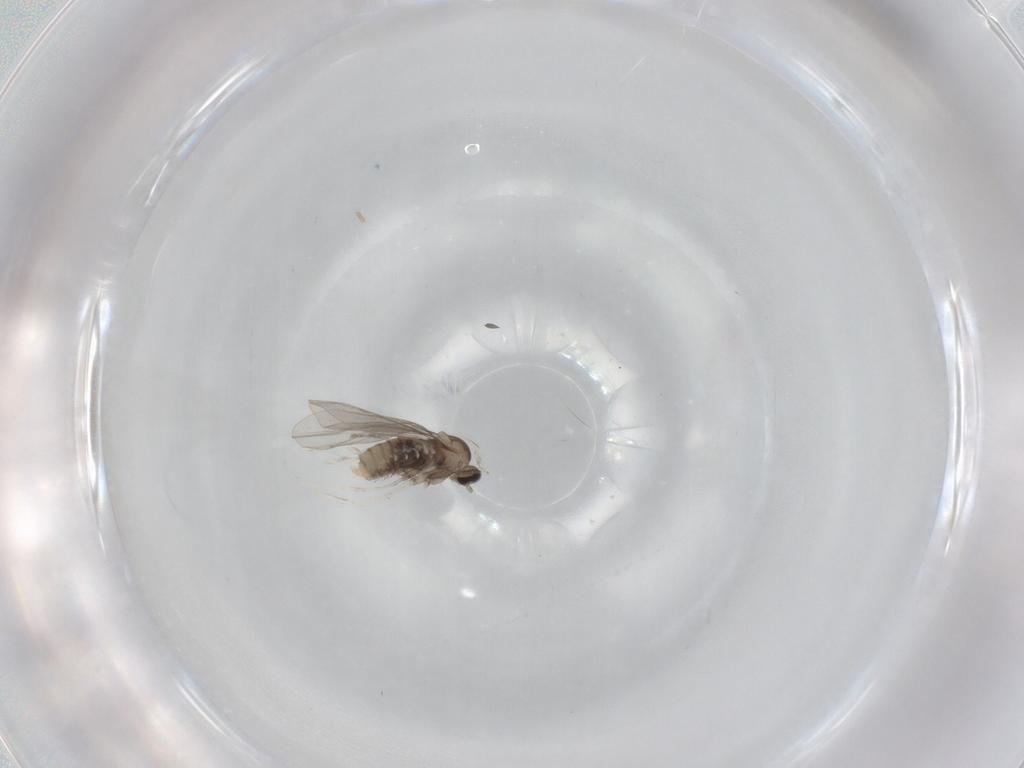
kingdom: Animalia
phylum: Arthropoda
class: Insecta
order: Diptera
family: Cecidomyiidae
